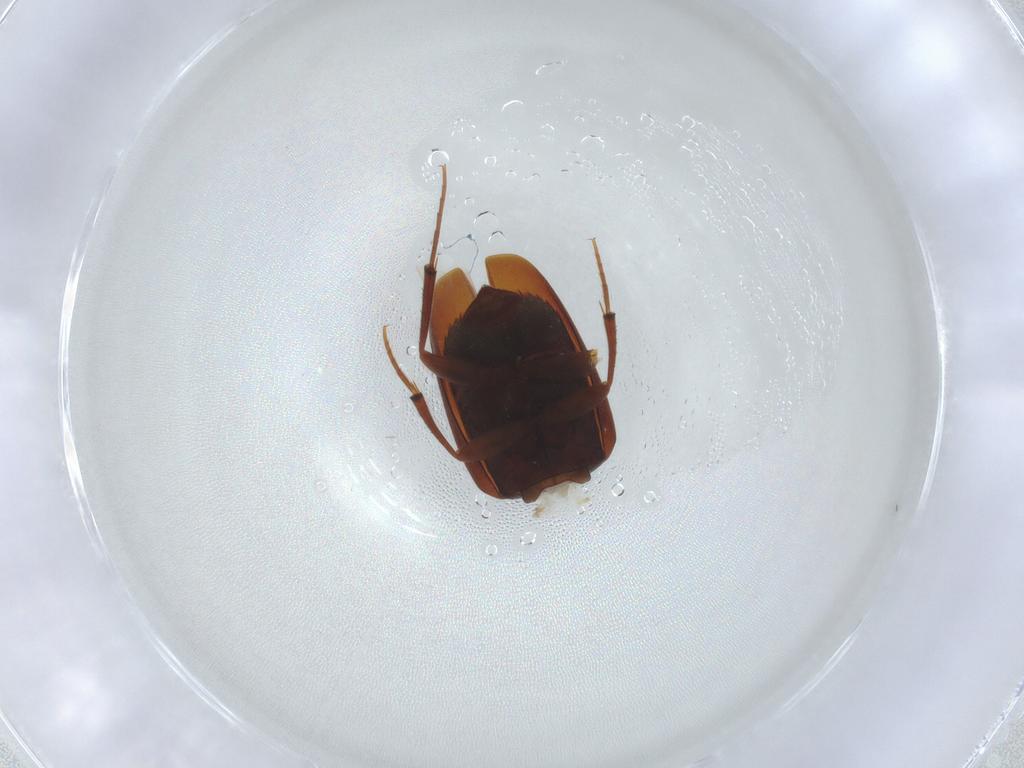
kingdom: Animalia
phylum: Arthropoda
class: Insecta
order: Coleoptera
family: Leiodidae
